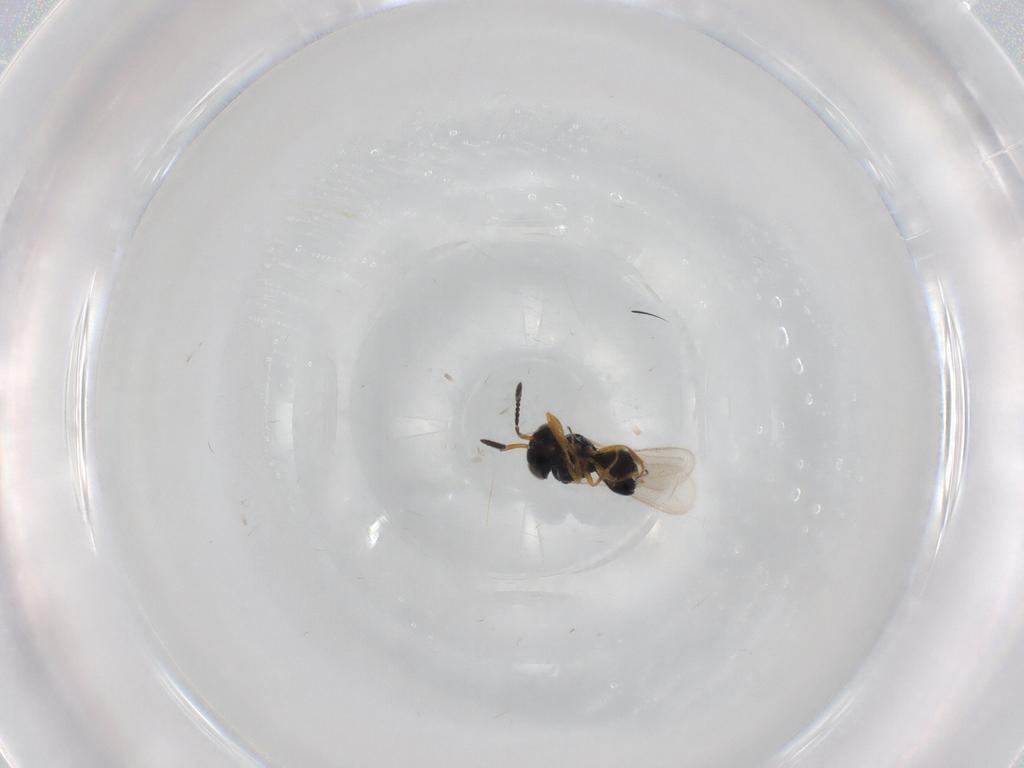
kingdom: Animalia
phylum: Arthropoda
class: Insecta
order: Hymenoptera
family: Scelionidae
